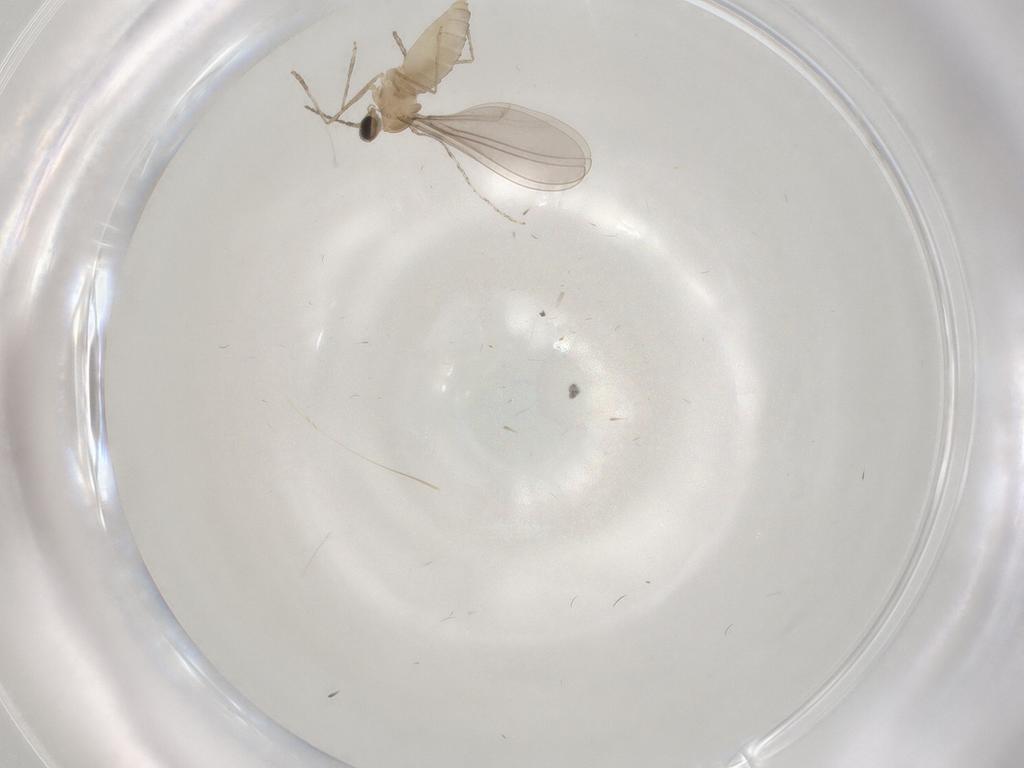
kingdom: Animalia
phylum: Arthropoda
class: Insecta
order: Diptera
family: Cecidomyiidae
